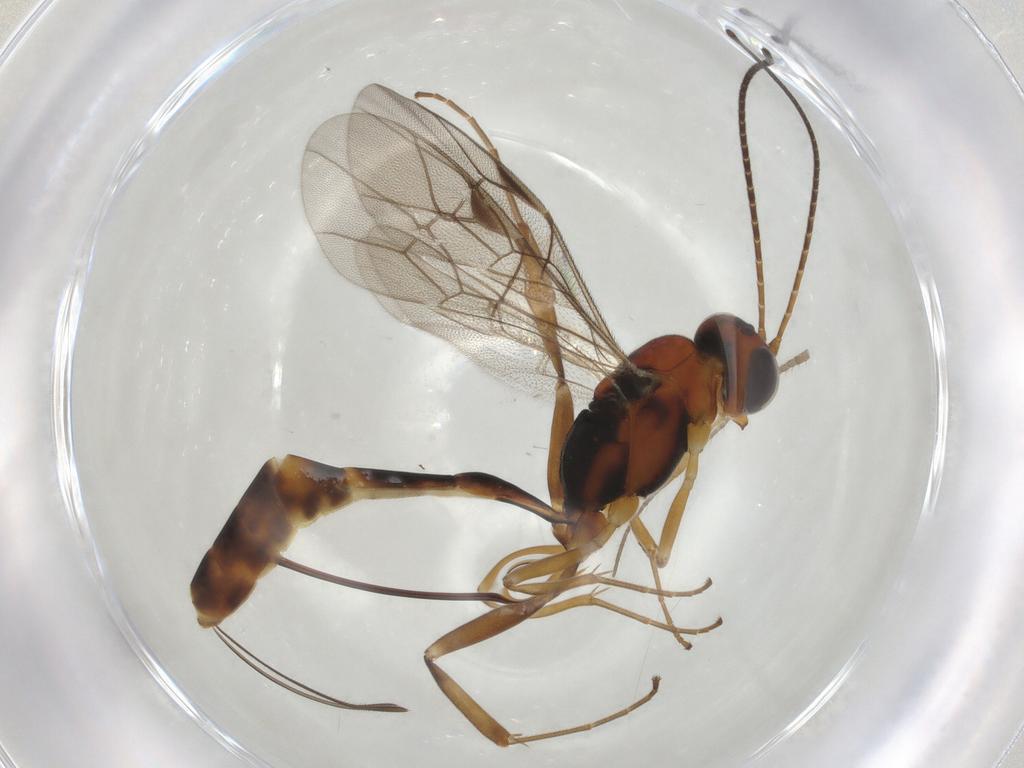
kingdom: Animalia
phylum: Arthropoda
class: Insecta
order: Hymenoptera
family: Ichneumonidae
